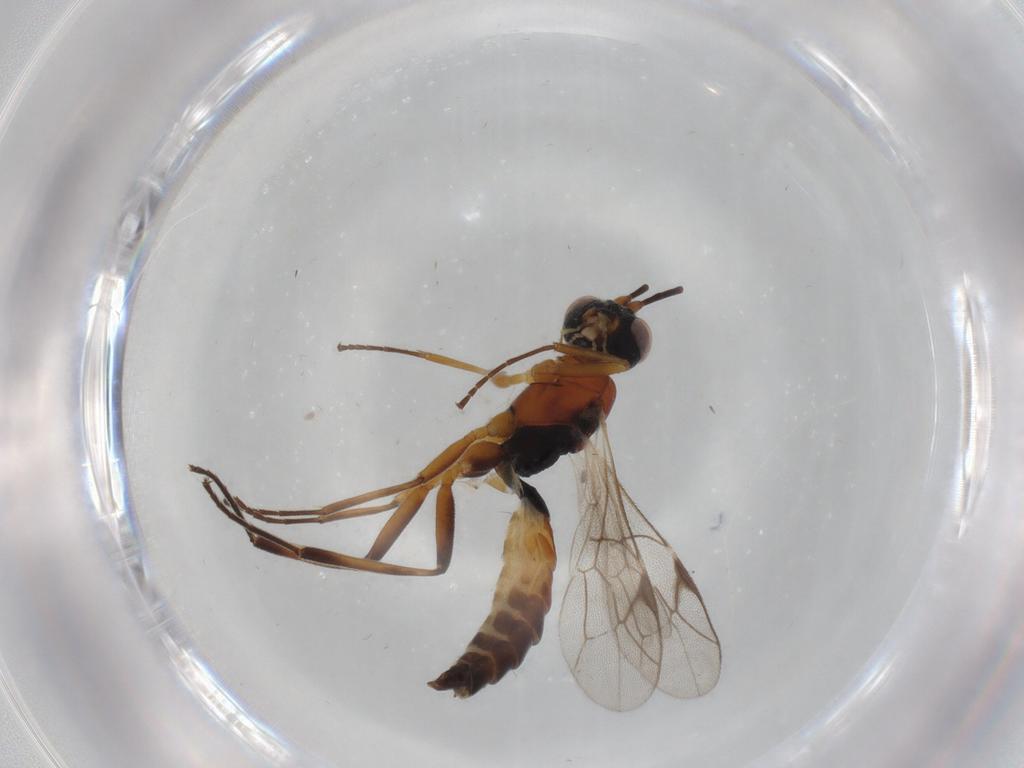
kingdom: Animalia
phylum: Arthropoda
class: Insecta
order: Hymenoptera
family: Ichneumonidae
